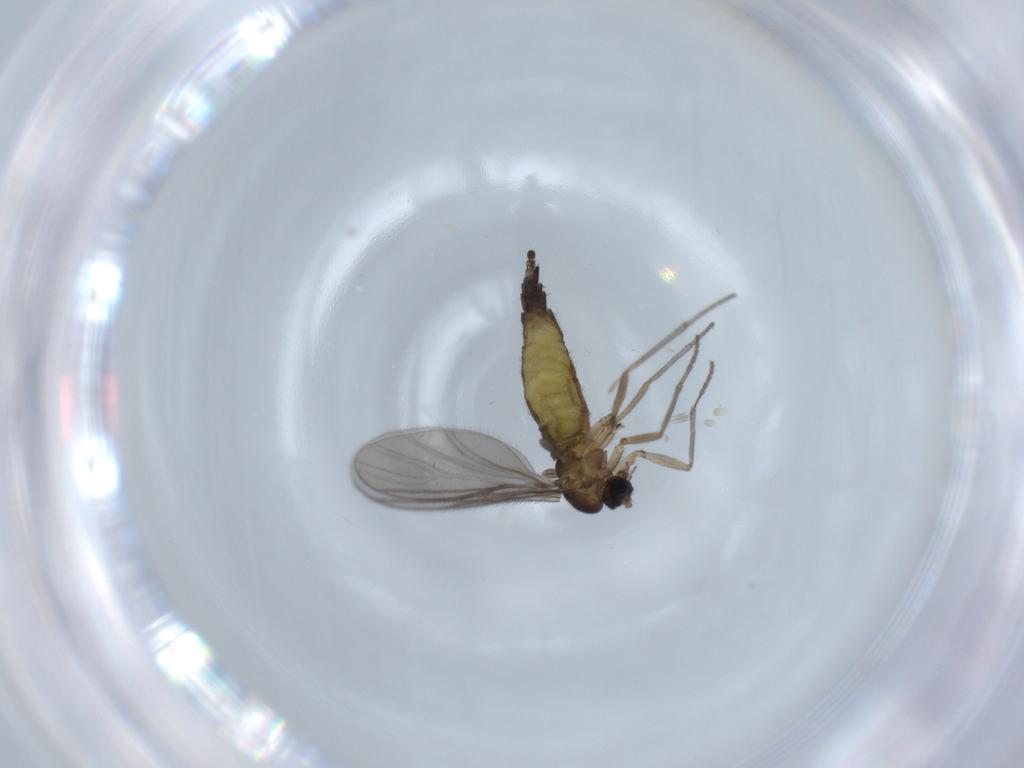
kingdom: Animalia
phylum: Arthropoda
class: Insecta
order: Diptera
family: Sciaridae
